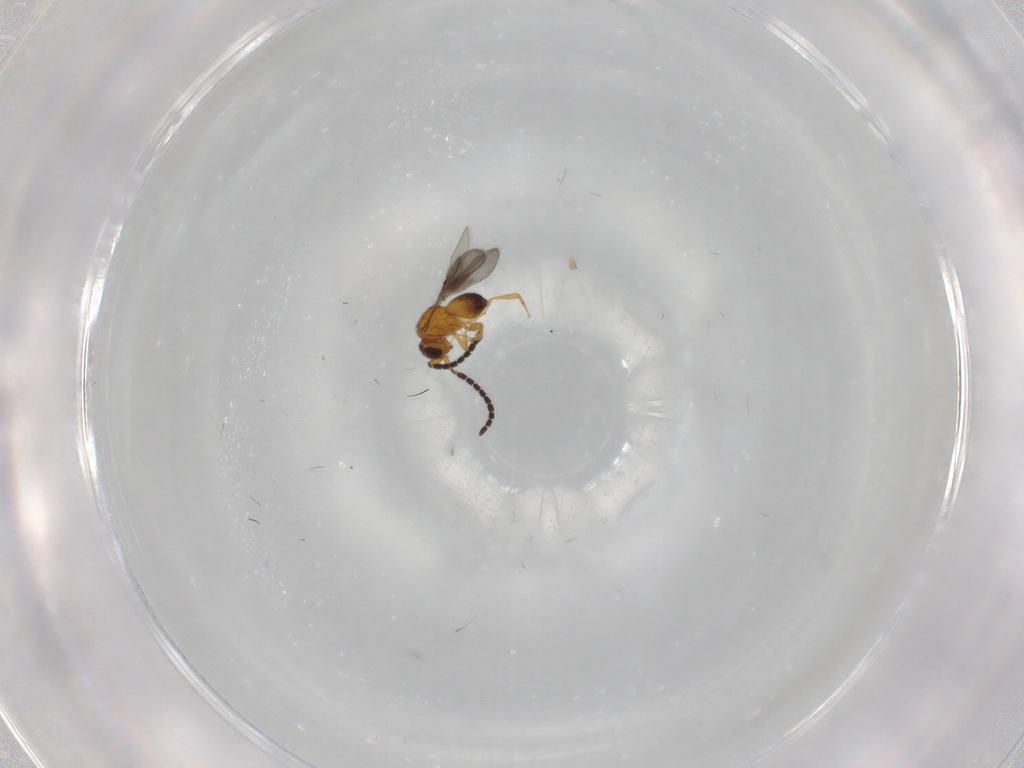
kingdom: Animalia
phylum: Arthropoda
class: Insecta
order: Hymenoptera
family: Ceraphronidae
